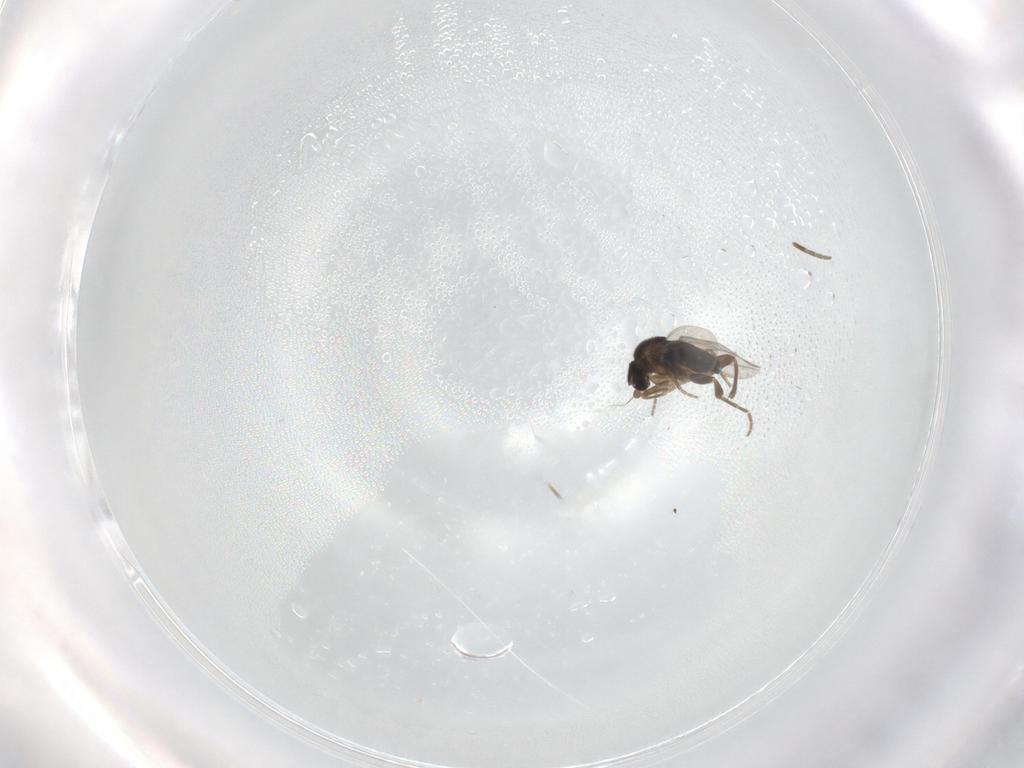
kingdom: Animalia
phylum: Arthropoda
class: Insecta
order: Diptera
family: Phoridae
